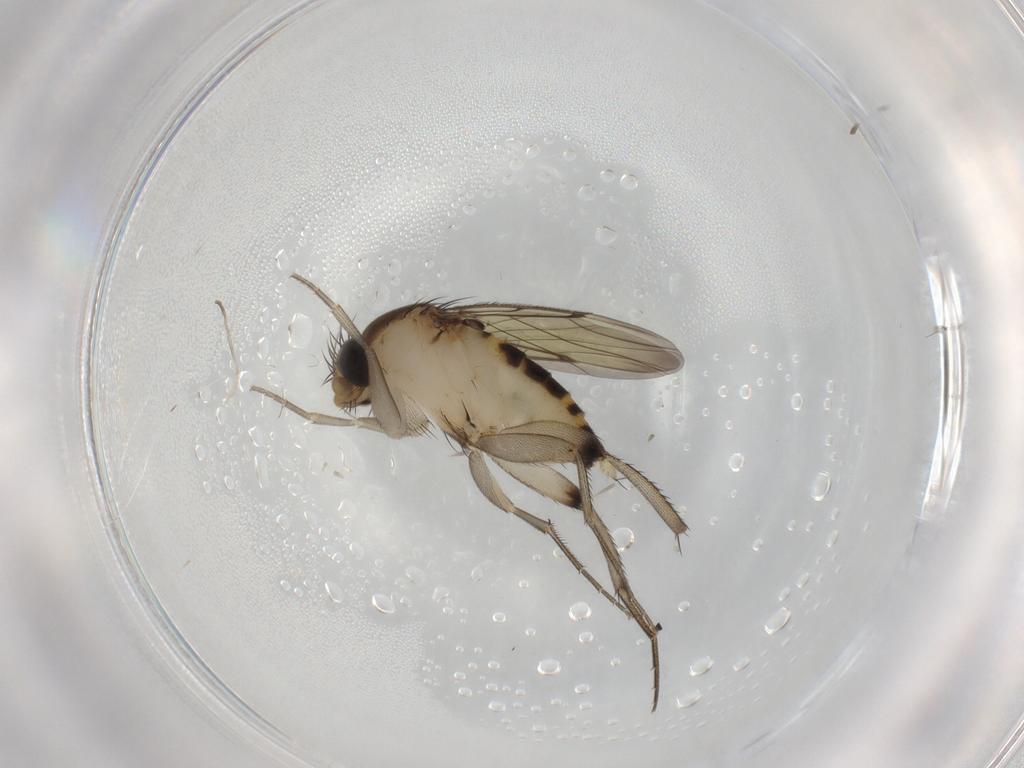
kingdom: Animalia
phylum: Arthropoda
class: Insecta
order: Diptera
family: Phoridae
